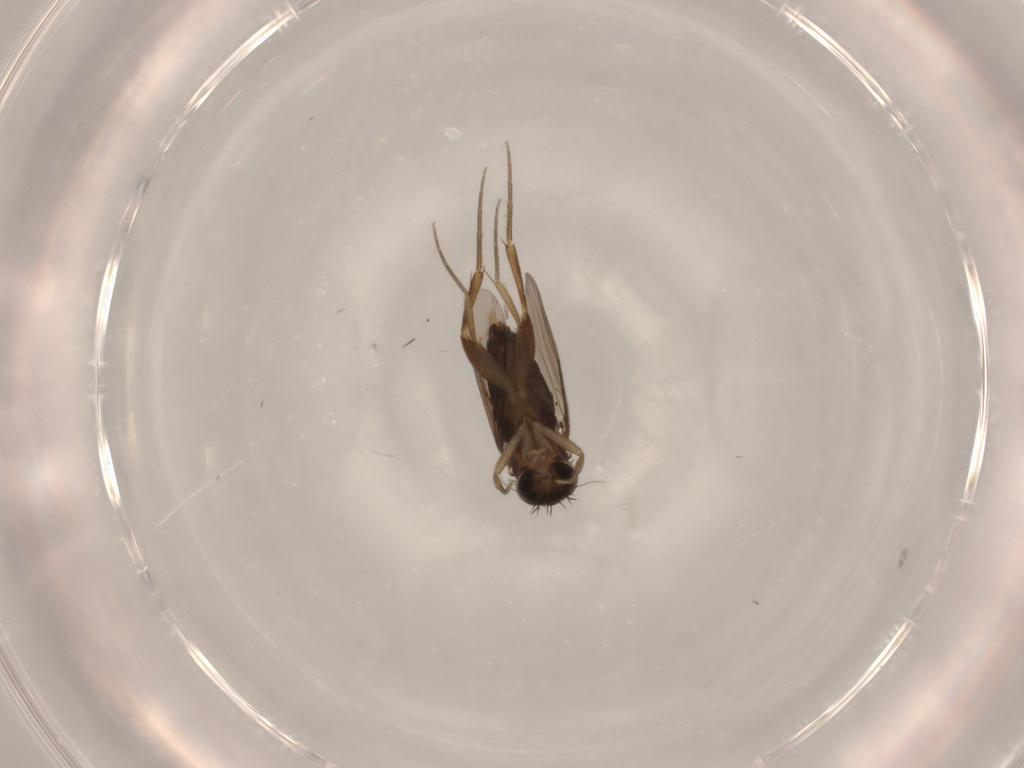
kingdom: Animalia
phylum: Arthropoda
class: Insecta
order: Diptera
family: Phoridae
